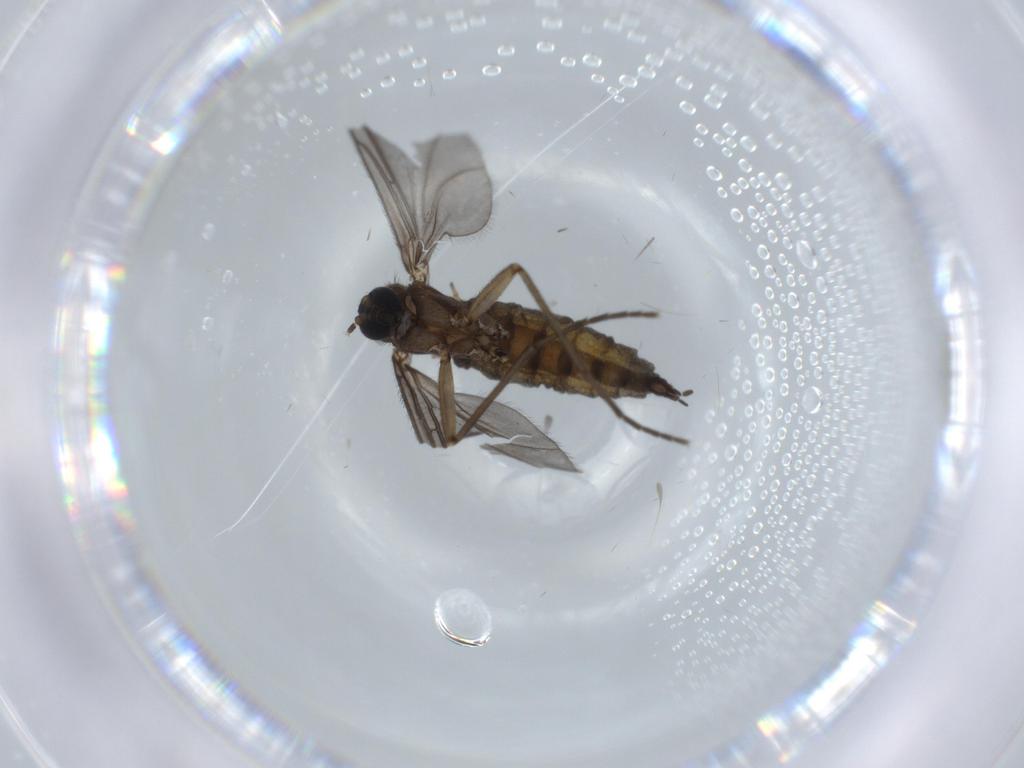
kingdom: Animalia
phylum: Arthropoda
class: Insecta
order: Diptera
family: Sciaridae
